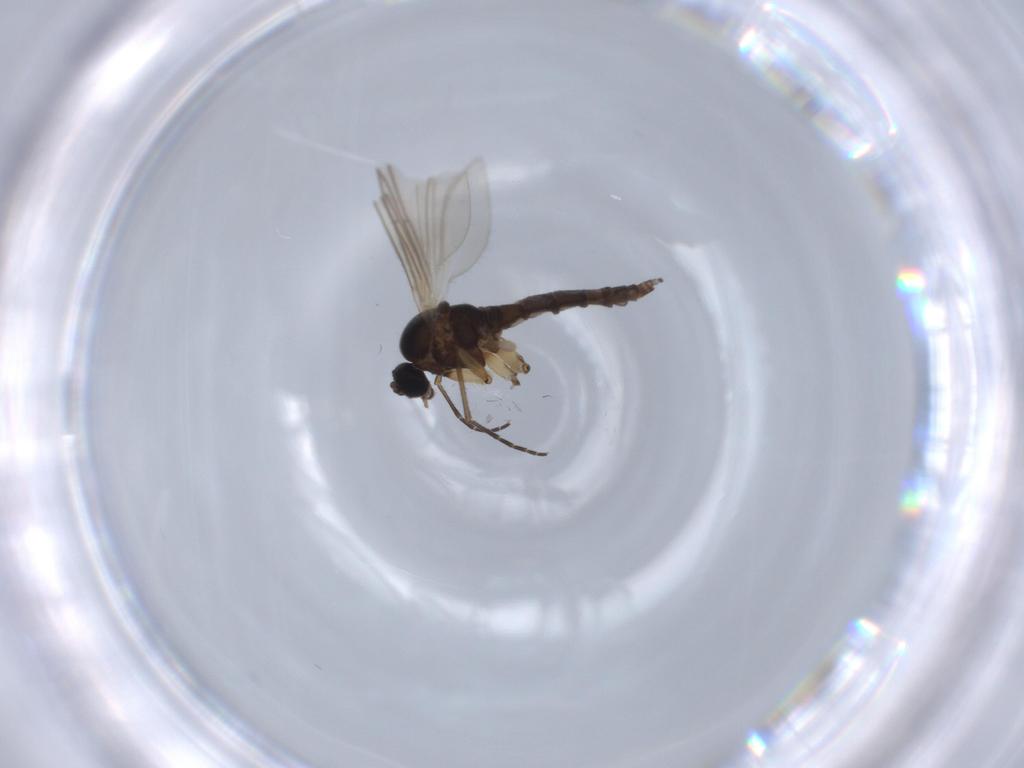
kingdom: Animalia
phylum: Arthropoda
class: Insecta
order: Diptera
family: Sciaridae
